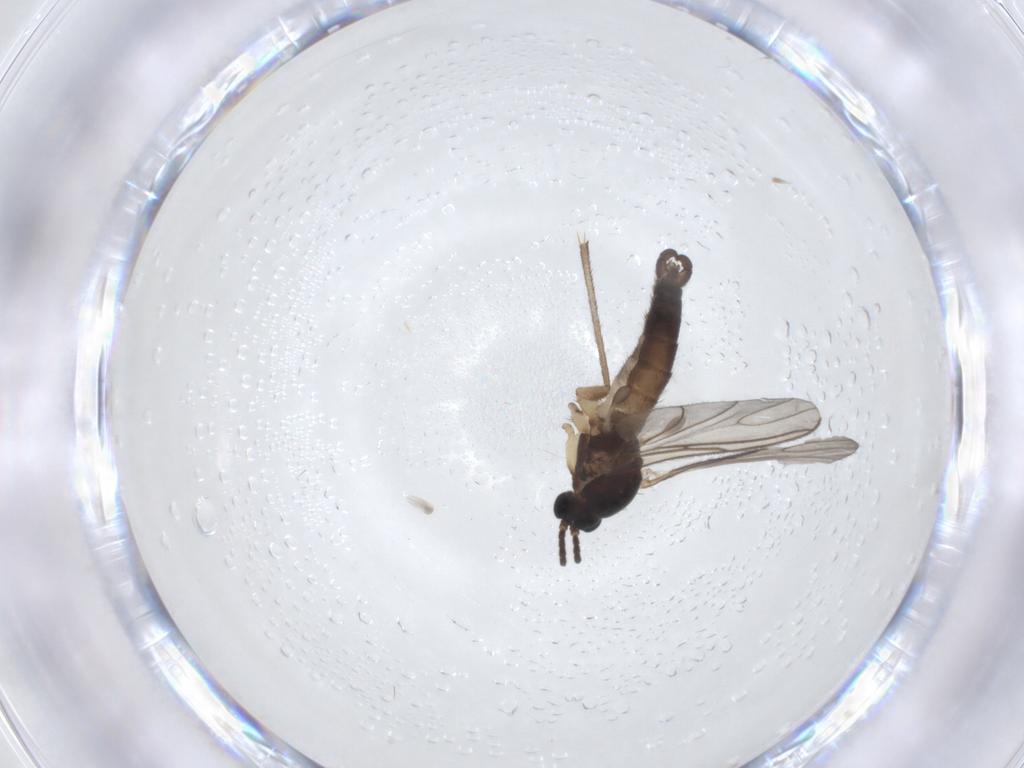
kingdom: Animalia
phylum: Arthropoda
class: Insecta
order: Diptera
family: Sciaridae
